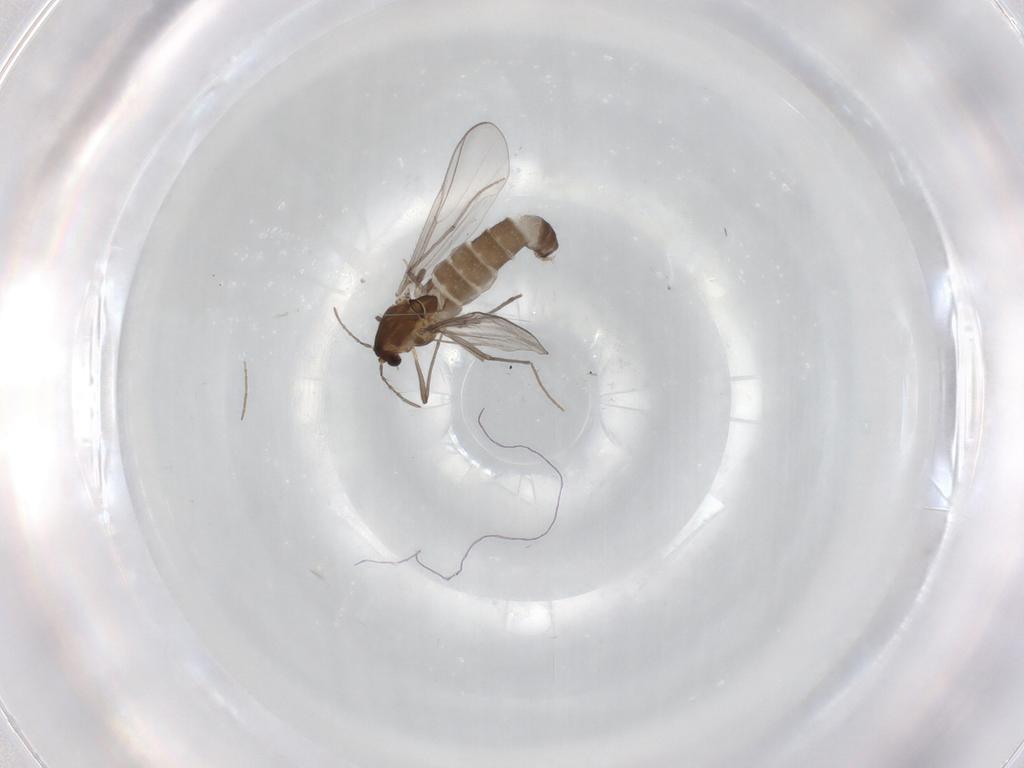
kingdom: Animalia
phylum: Arthropoda
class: Insecta
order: Diptera
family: Chironomidae
